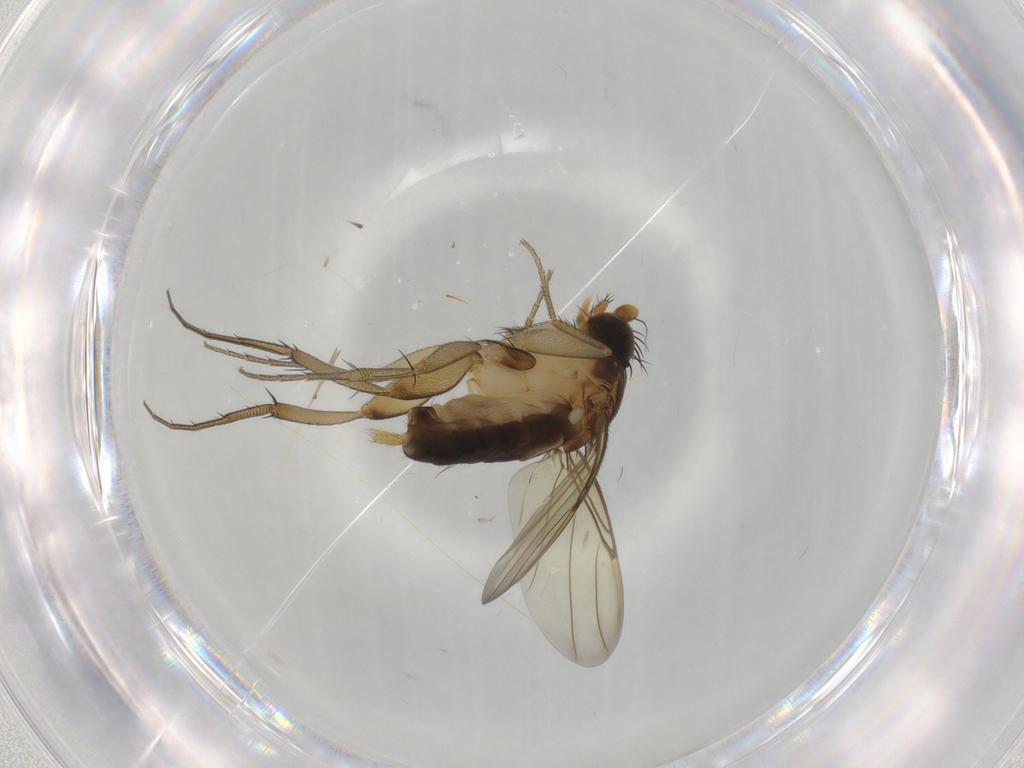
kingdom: Animalia
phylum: Arthropoda
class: Insecta
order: Diptera
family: Phoridae
